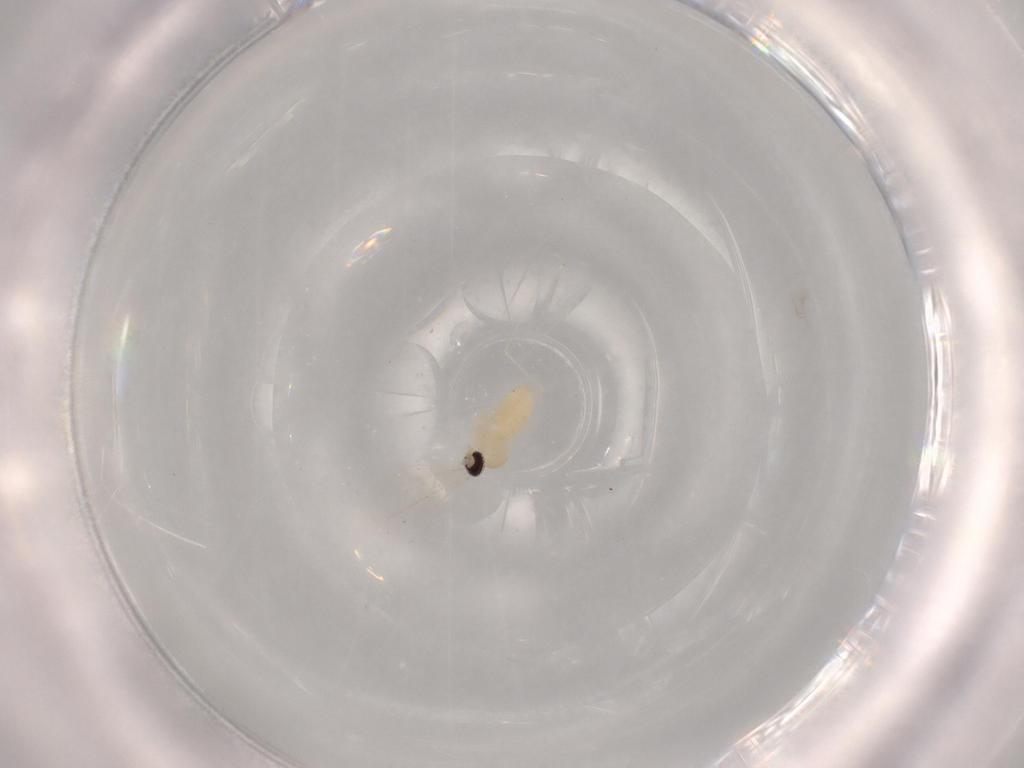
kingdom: Animalia
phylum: Arthropoda
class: Insecta
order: Diptera
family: Cecidomyiidae
